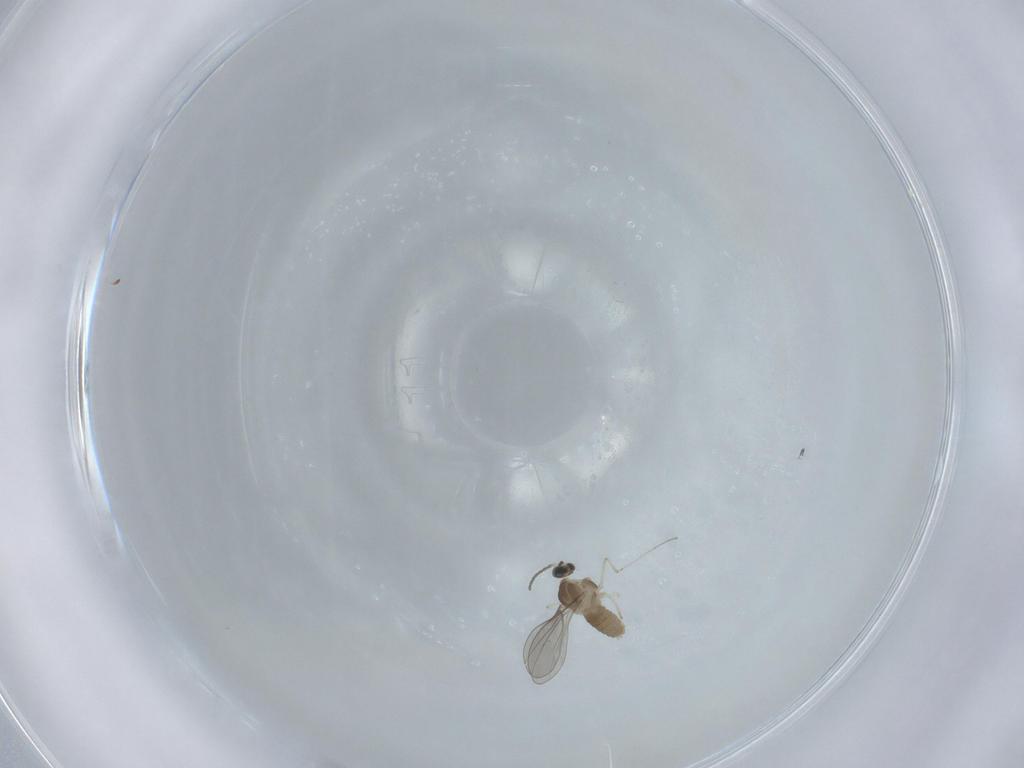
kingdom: Animalia
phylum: Arthropoda
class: Insecta
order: Diptera
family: Cecidomyiidae
